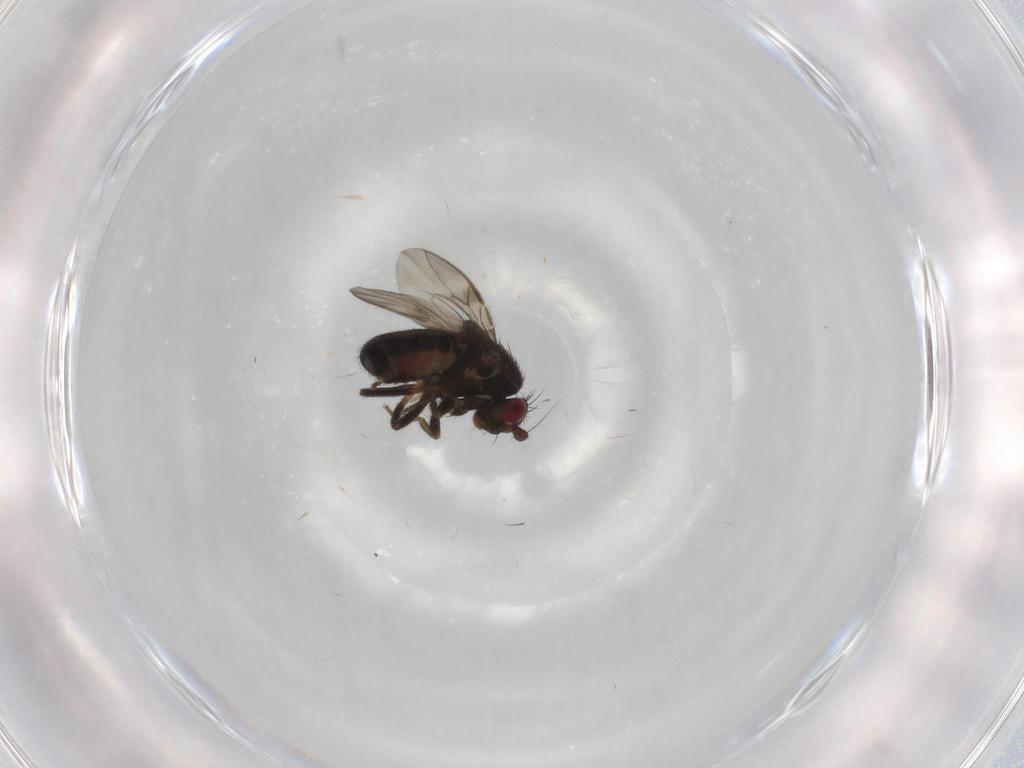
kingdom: Animalia
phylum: Arthropoda
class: Insecta
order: Diptera
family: Sphaeroceridae
